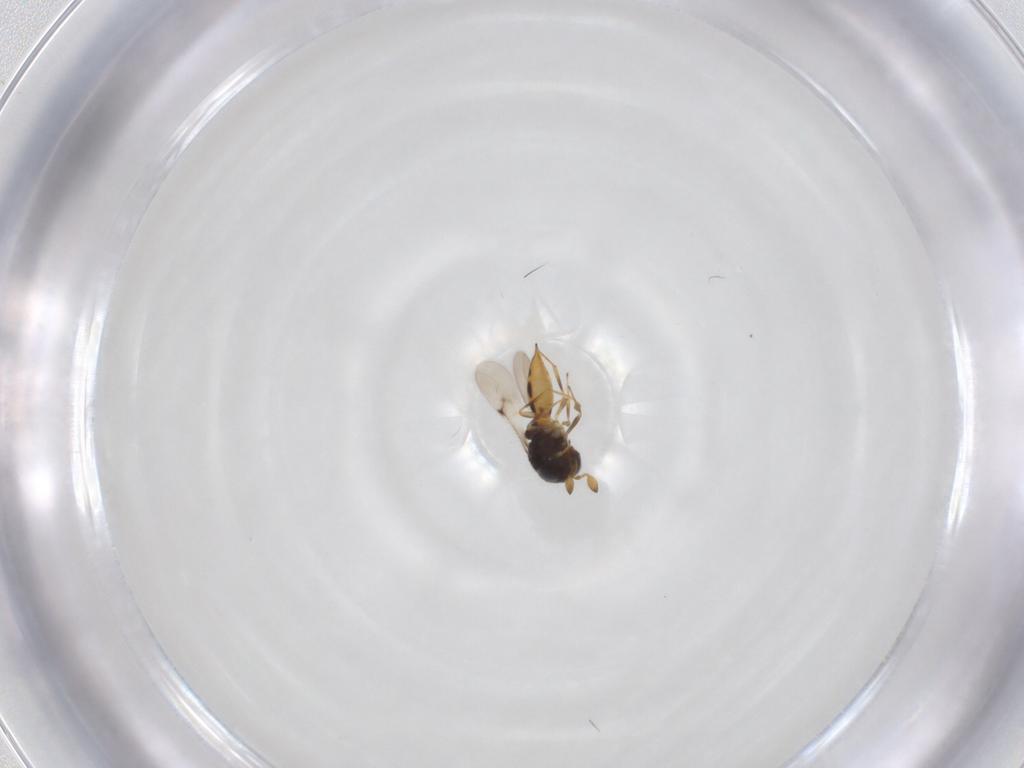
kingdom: Animalia
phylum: Arthropoda
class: Insecta
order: Hymenoptera
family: Scelionidae
